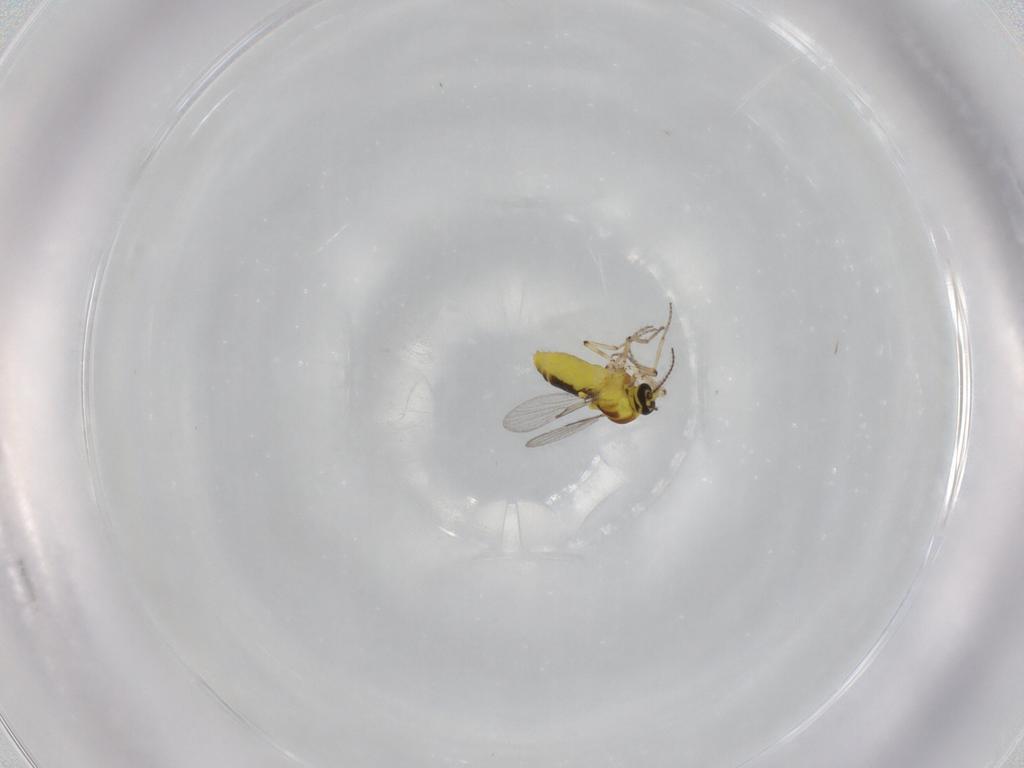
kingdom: Animalia
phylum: Arthropoda
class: Insecta
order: Diptera
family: Ceratopogonidae
